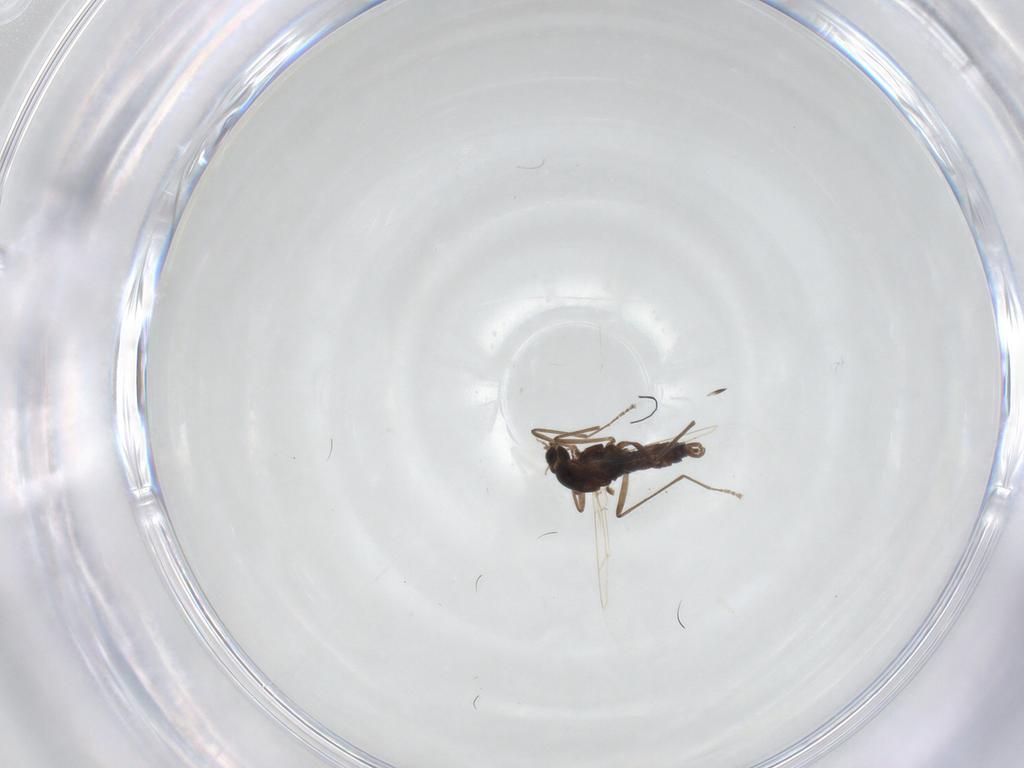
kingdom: Animalia
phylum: Arthropoda
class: Insecta
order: Diptera
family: Cecidomyiidae
